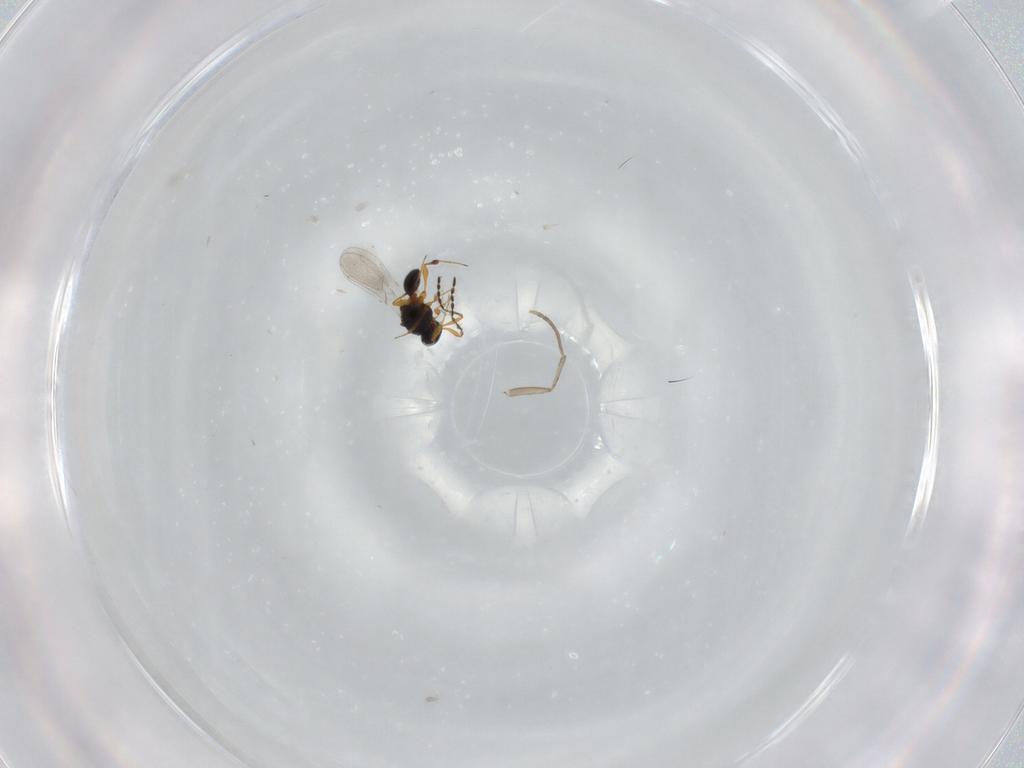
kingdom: Animalia
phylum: Arthropoda
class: Insecta
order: Hymenoptera
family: Platygastridae
